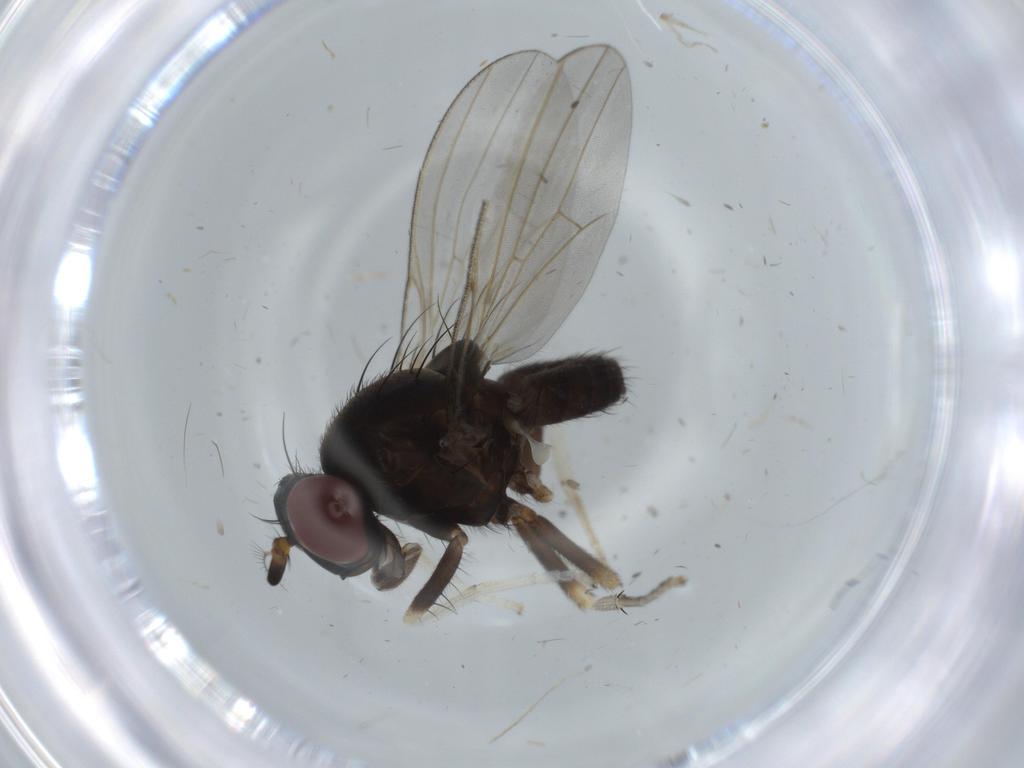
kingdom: Animalia
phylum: Arthropoda
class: Insecta
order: Diptera
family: Lauxaniidae
